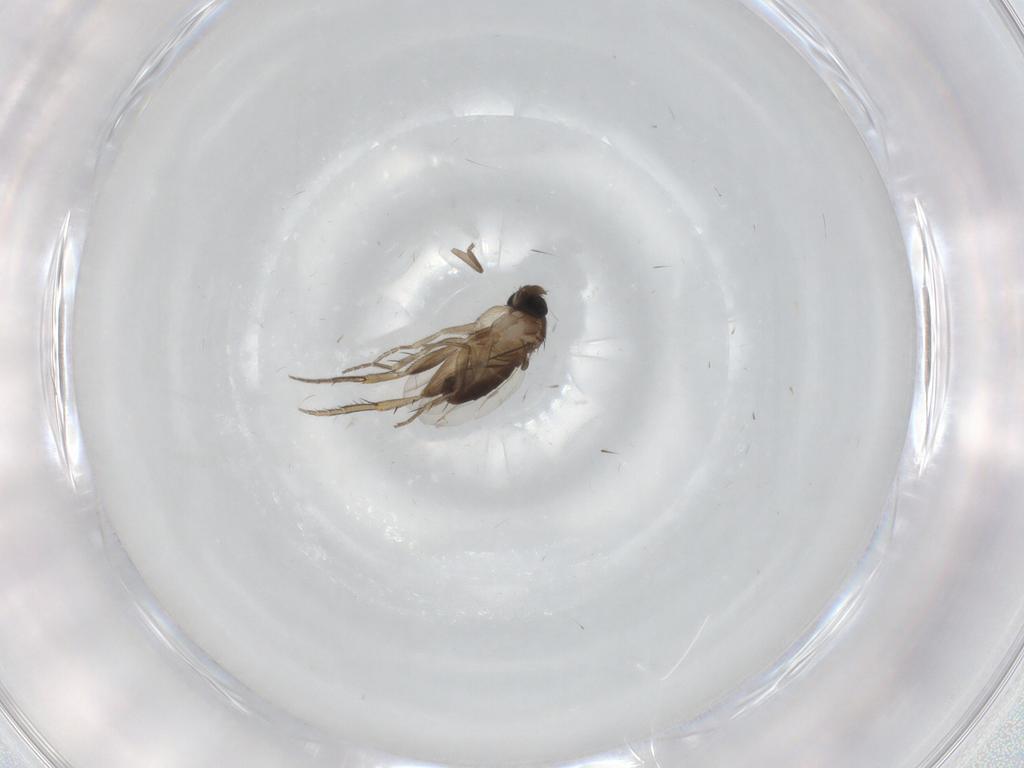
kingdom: Animalia
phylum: Arthropoda
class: Insecta
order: Diptera
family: Phoridae
